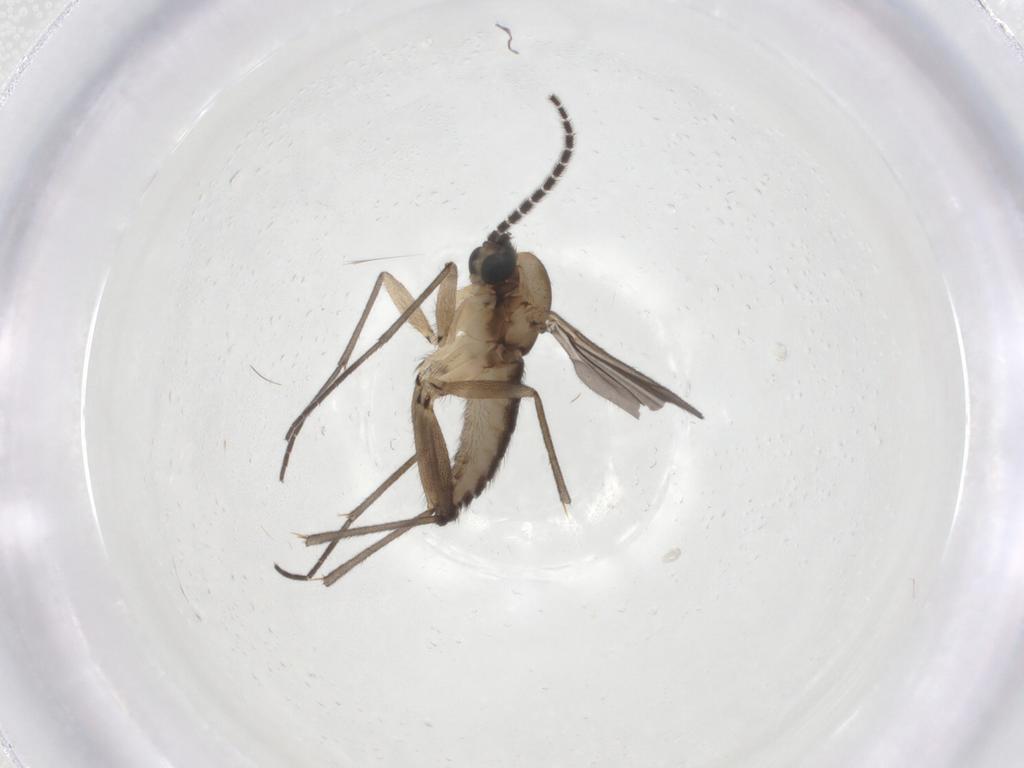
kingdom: Animalia
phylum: Arthropoda
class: Insecta
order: Diptera
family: Sciaridae
